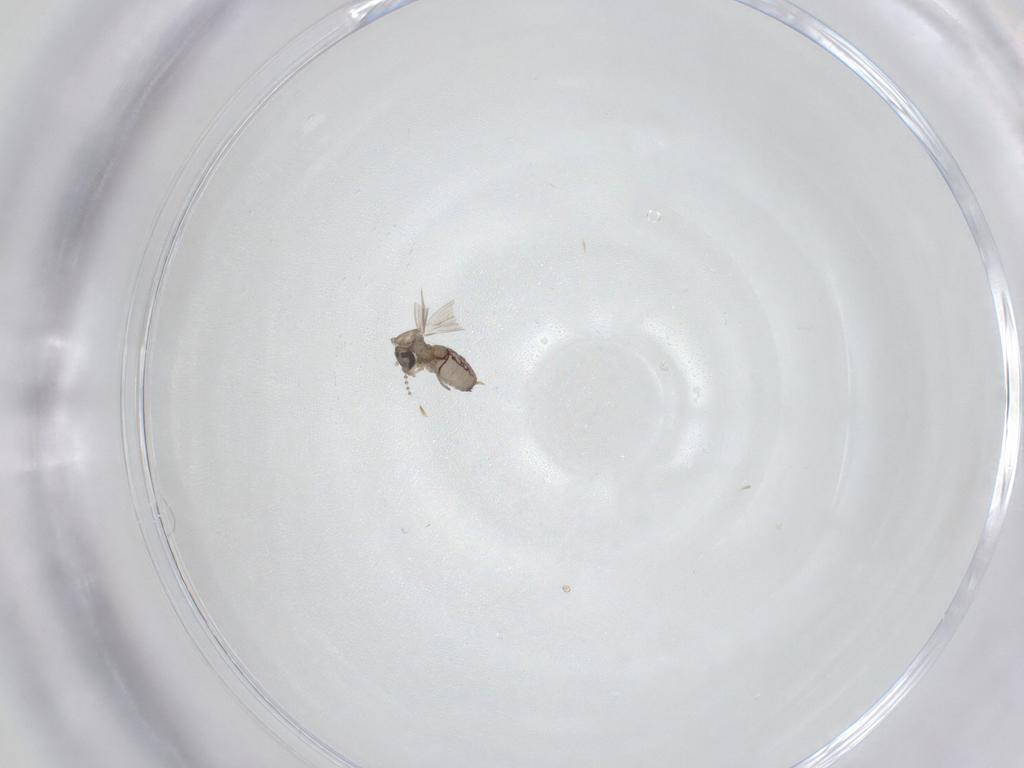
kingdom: Animalia
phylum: Arthropoda
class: Insecta
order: Diptera
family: Psychodidae
